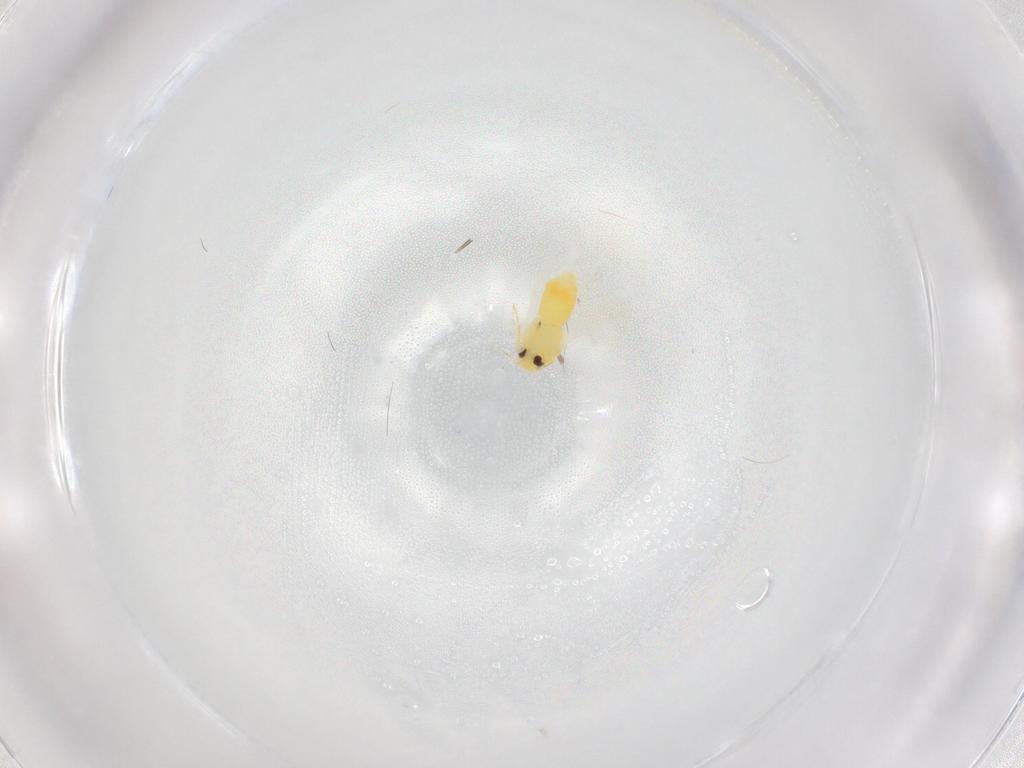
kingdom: Animalia
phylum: Arthropoda
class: Insecta
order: Hemiptera
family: Aleyrodidae
